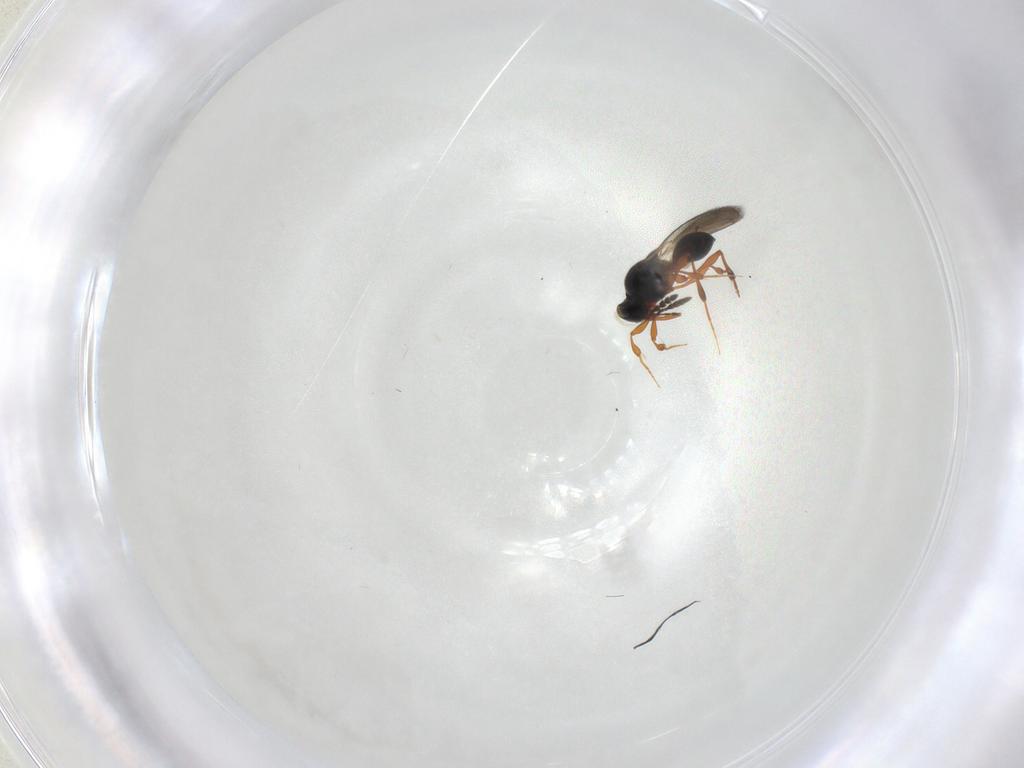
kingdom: Animalia
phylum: Arthropoda
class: Insecta
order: Hymenoptera
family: Platygastridae
